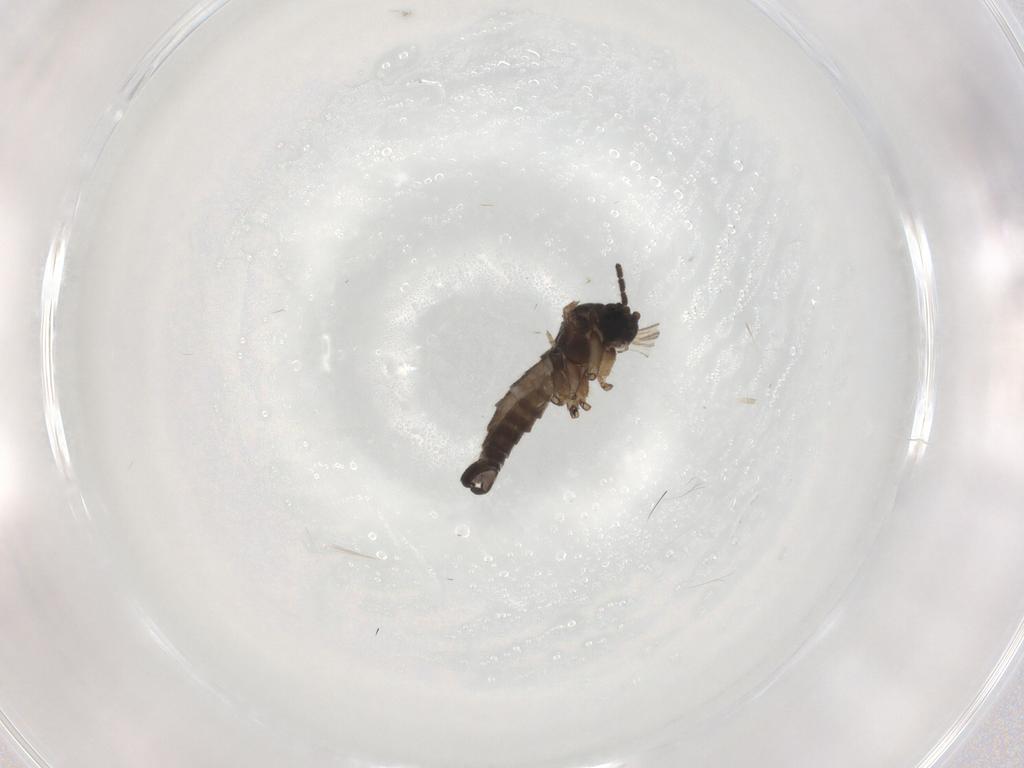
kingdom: Animalia
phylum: Arthropoda
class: Insecta
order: Diptera
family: Sciaridae
